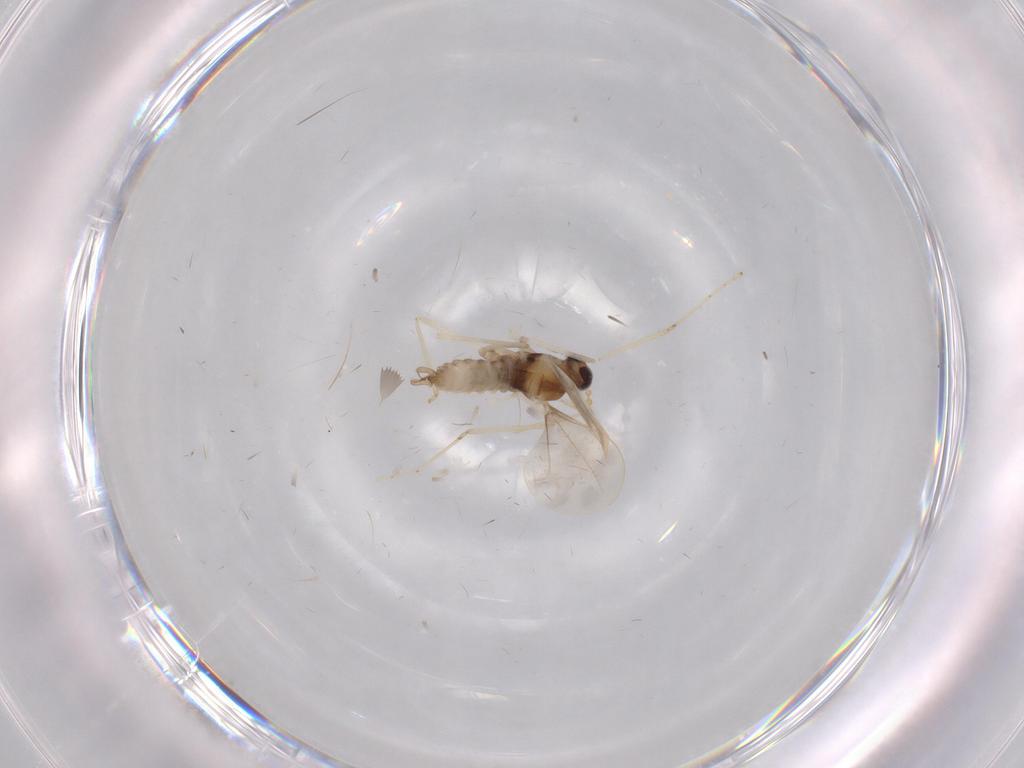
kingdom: Animalia
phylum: Arthropoda
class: Insecta
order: Diptera
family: Cecidomyiidae
